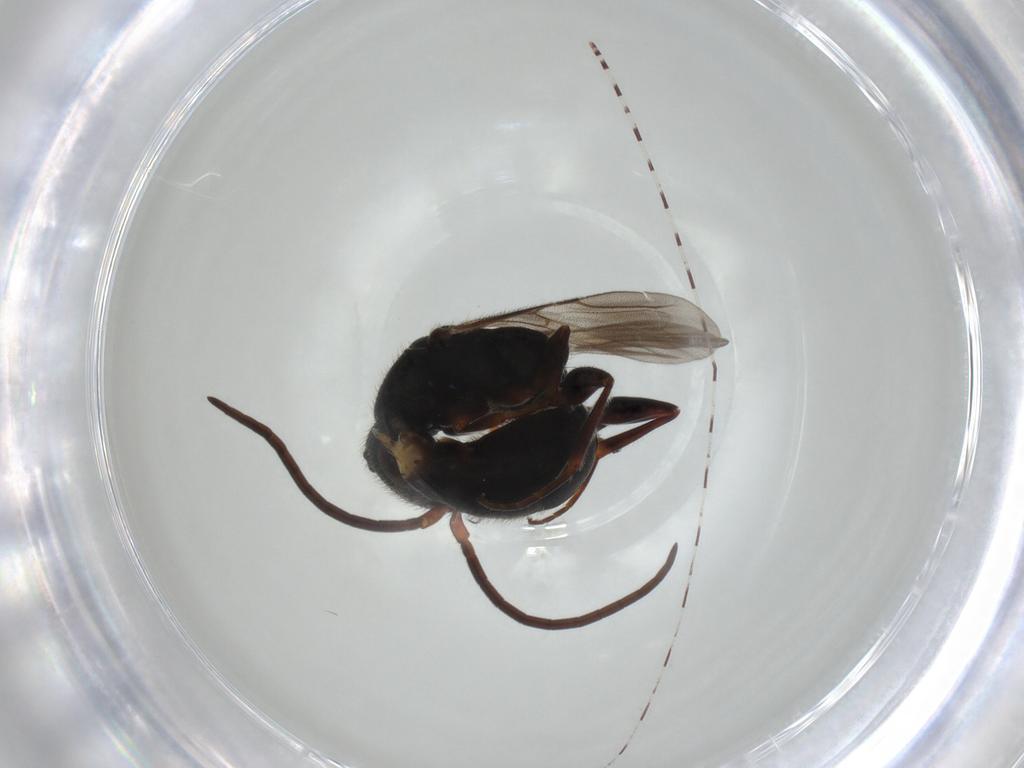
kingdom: Animalia
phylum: Arthropoda
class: Insecta
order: Hymenoptera
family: Bethylidae
